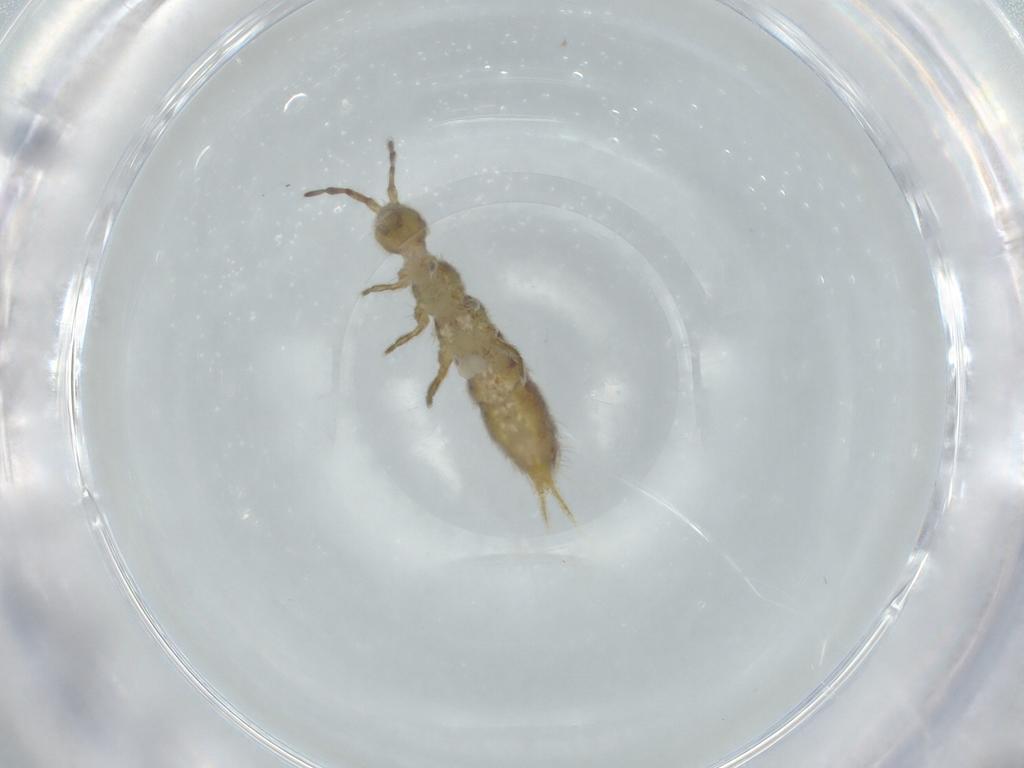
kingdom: Animalia
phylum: Arthropoda
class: Collembola
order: Entomobryomorpha
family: Isotomidae
